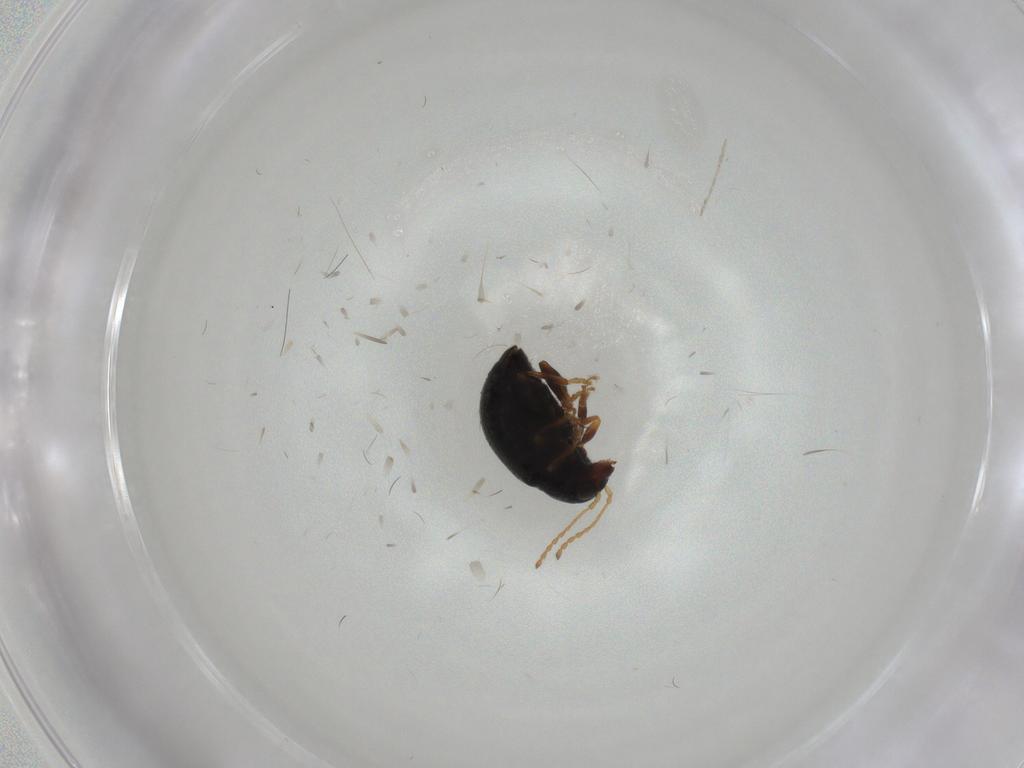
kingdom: Animalia
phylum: Arthropoda
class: Insecta
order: Coleoptera
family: Chrysomelidae
